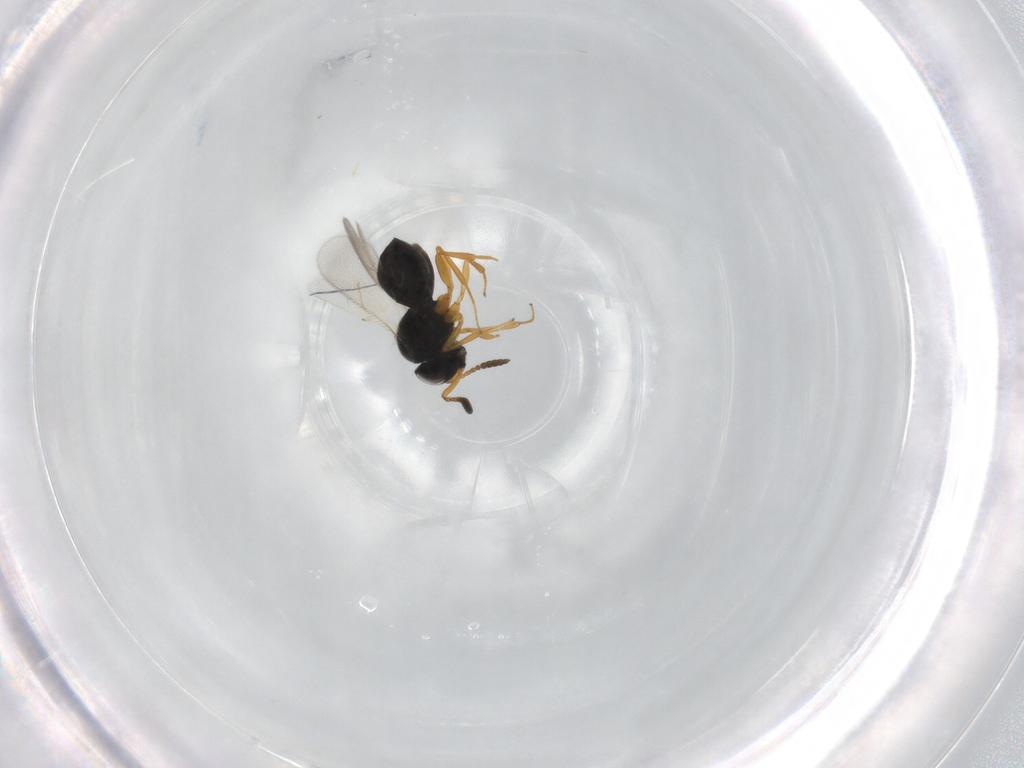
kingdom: Animalia
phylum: Arthropoda
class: Insecta
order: Hymenoptera
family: Scelionidae
